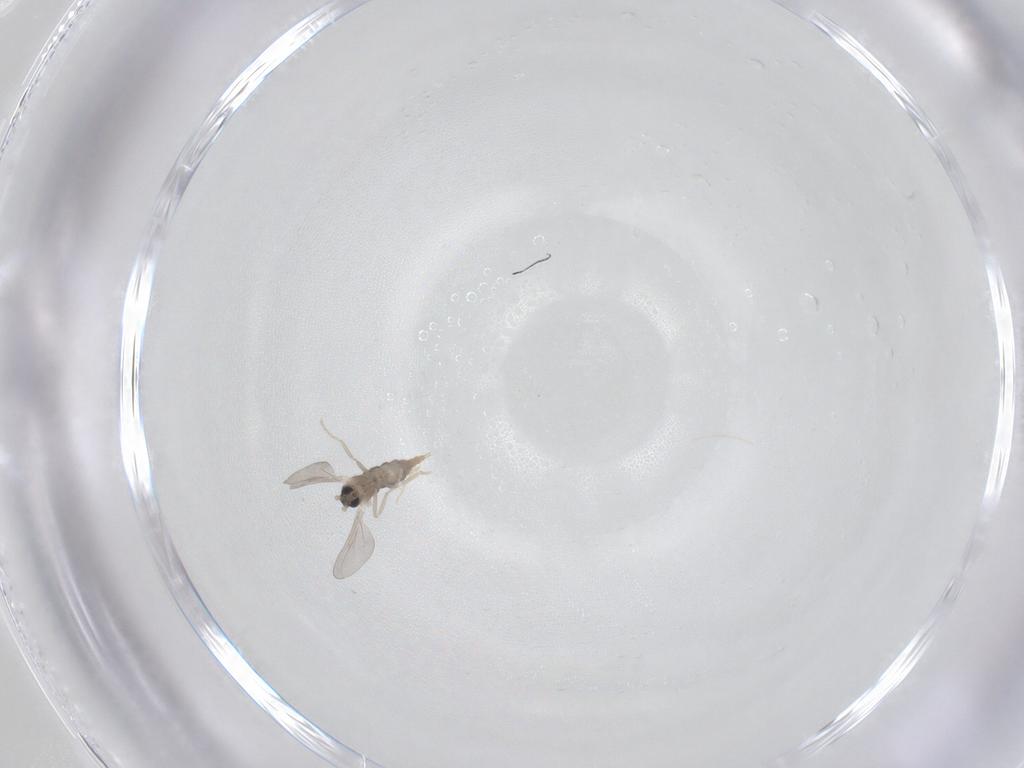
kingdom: Animalia
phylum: Arthropoda
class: Insecta
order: Diptera
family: Cecidomyiidae
